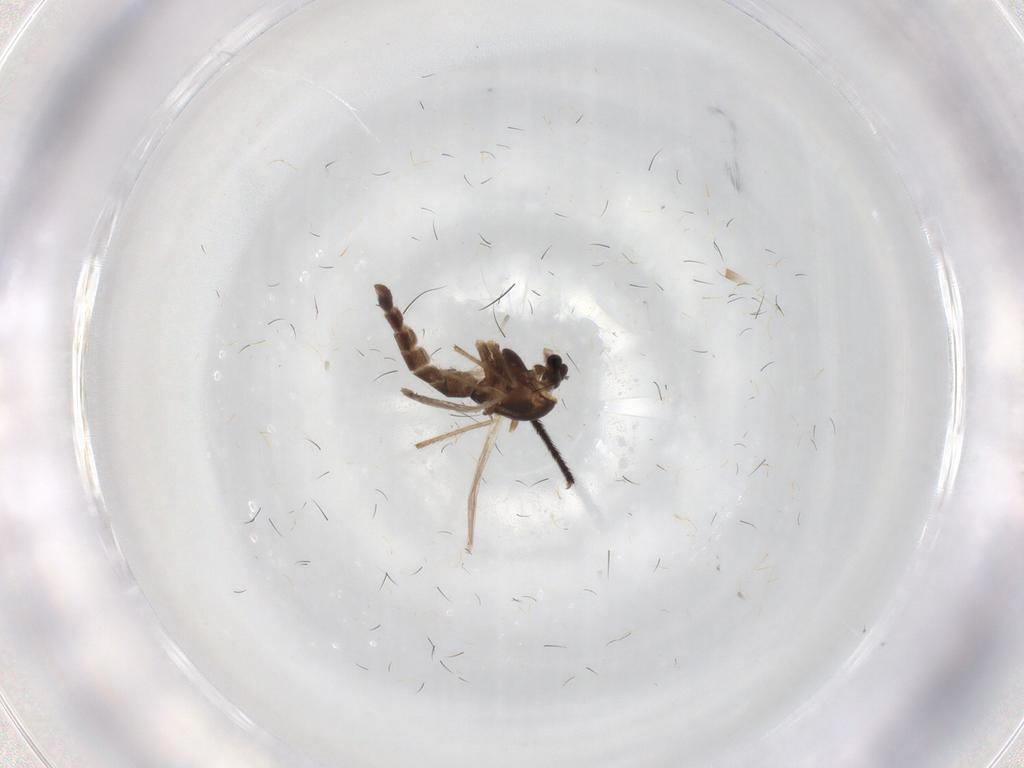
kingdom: Animalia
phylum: Arthropoda
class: Insecta
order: Diptera
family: Chironomidae
